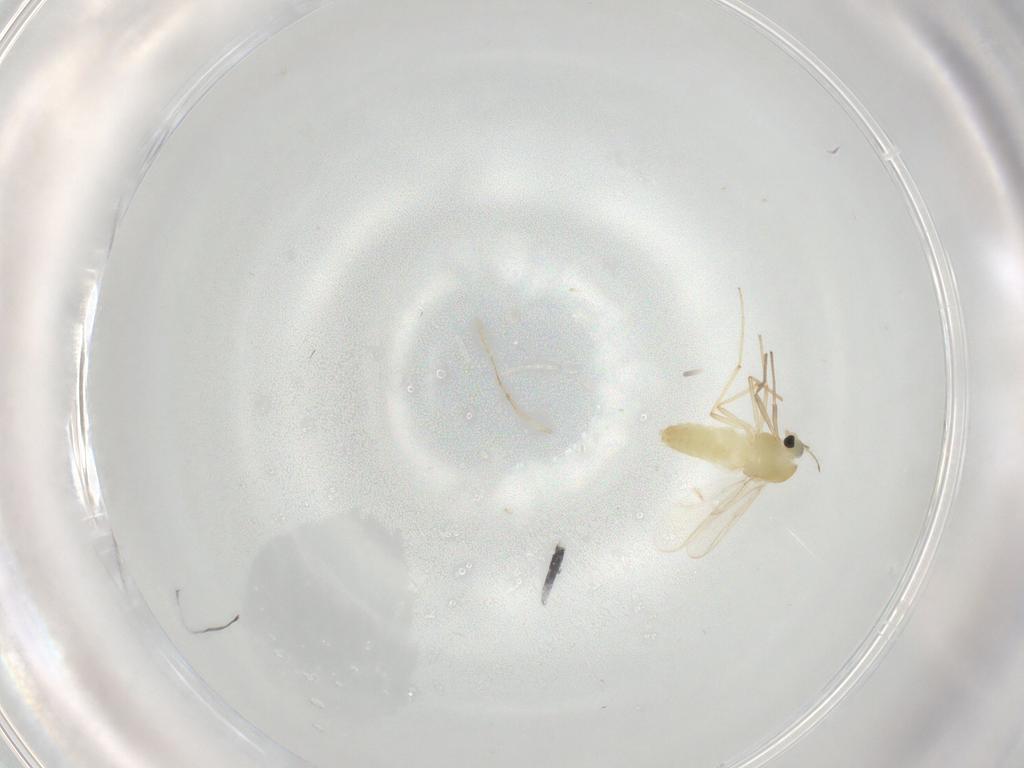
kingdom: Animalia
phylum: Arthropoda
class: Insecta
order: Diptera
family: Chironomidae
